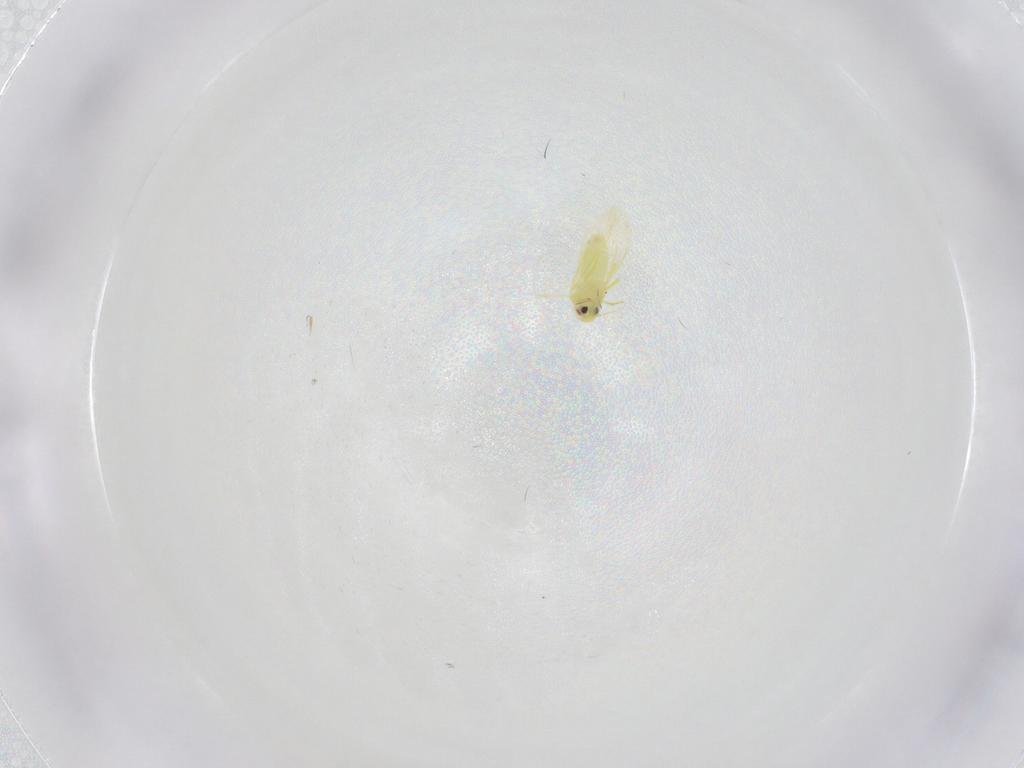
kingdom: Animalia
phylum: Arthropoda
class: Insecta
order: Hemiptera
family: Aleyrodidae
